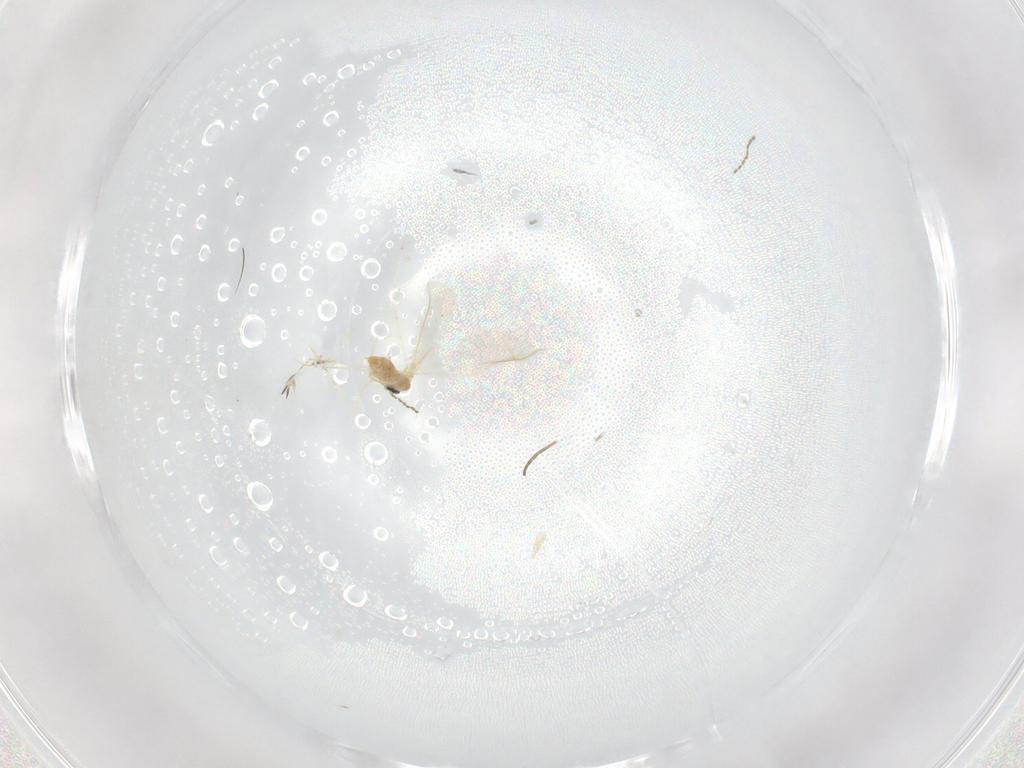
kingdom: Animalia
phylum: Arthropoda
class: Insecta
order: Diptera
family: Cecidomyiidae
